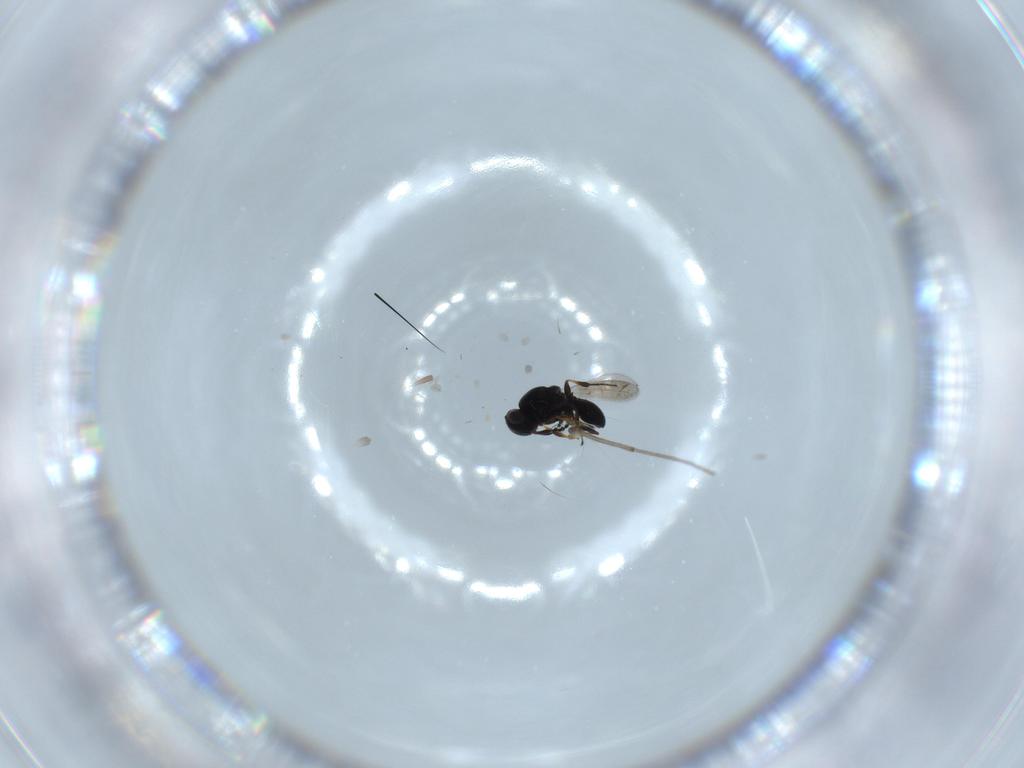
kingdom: Animalia
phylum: Arthropoda
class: Insecta
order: Hymenoptera
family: Platygastridae
